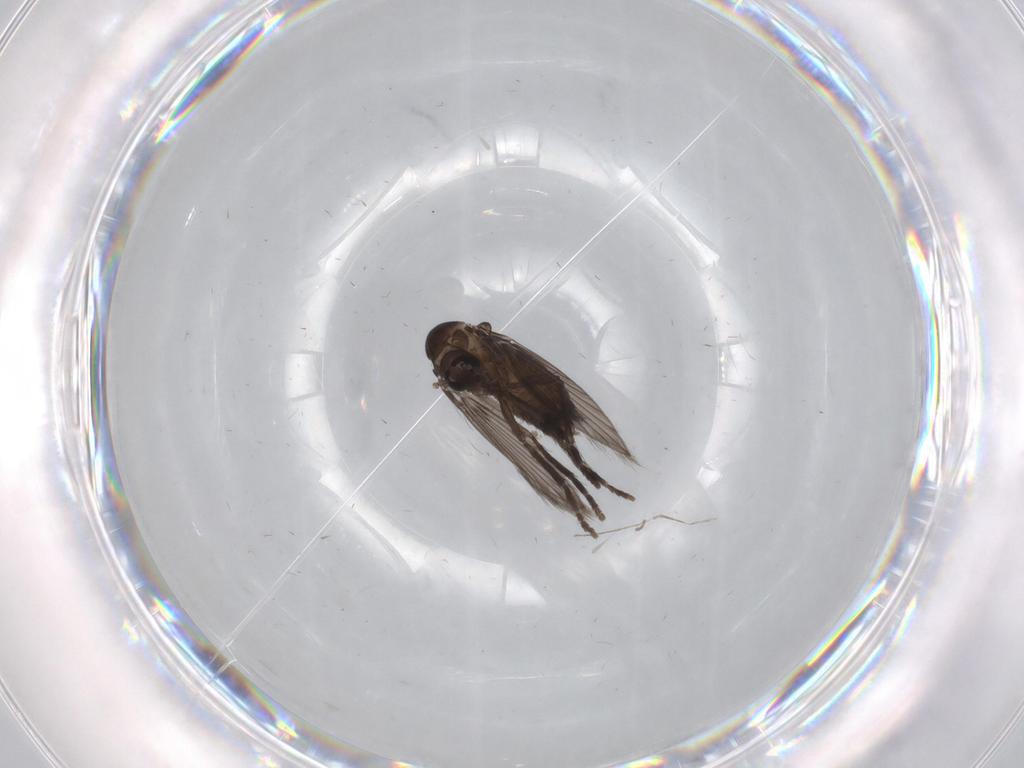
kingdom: Animalia
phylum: Arthropoda
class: Insecta
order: Diptera
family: Psychodidae
